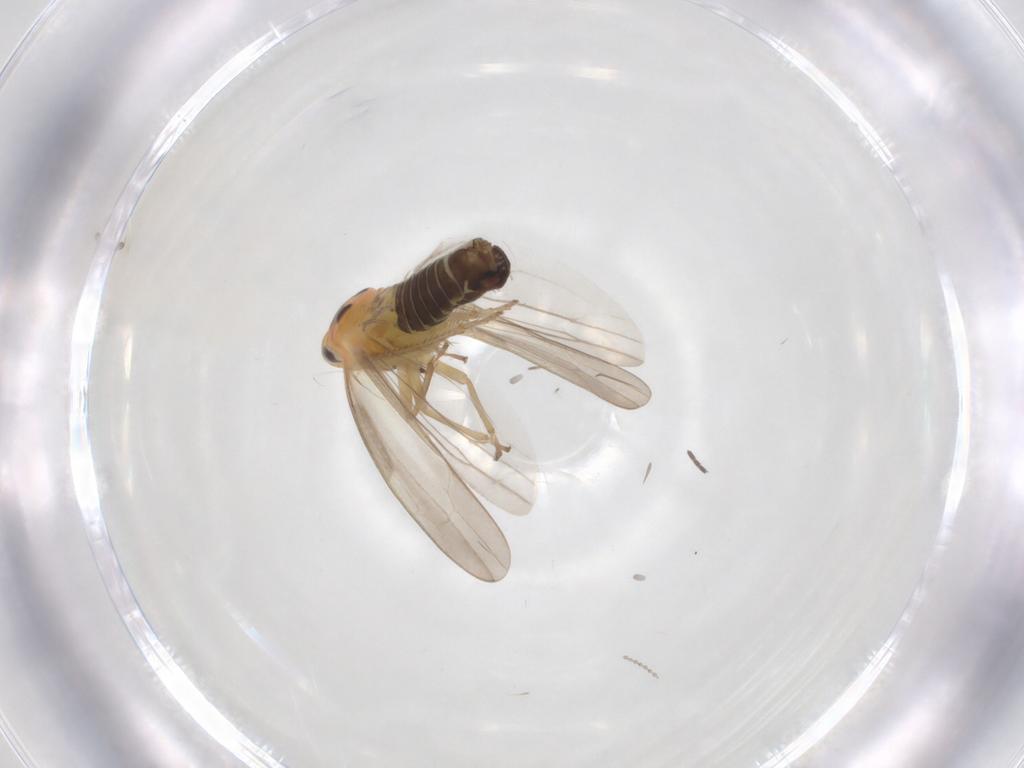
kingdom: Animalia
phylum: Arthropoda
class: Insecta
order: Hemiptera
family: Cicadellidae
